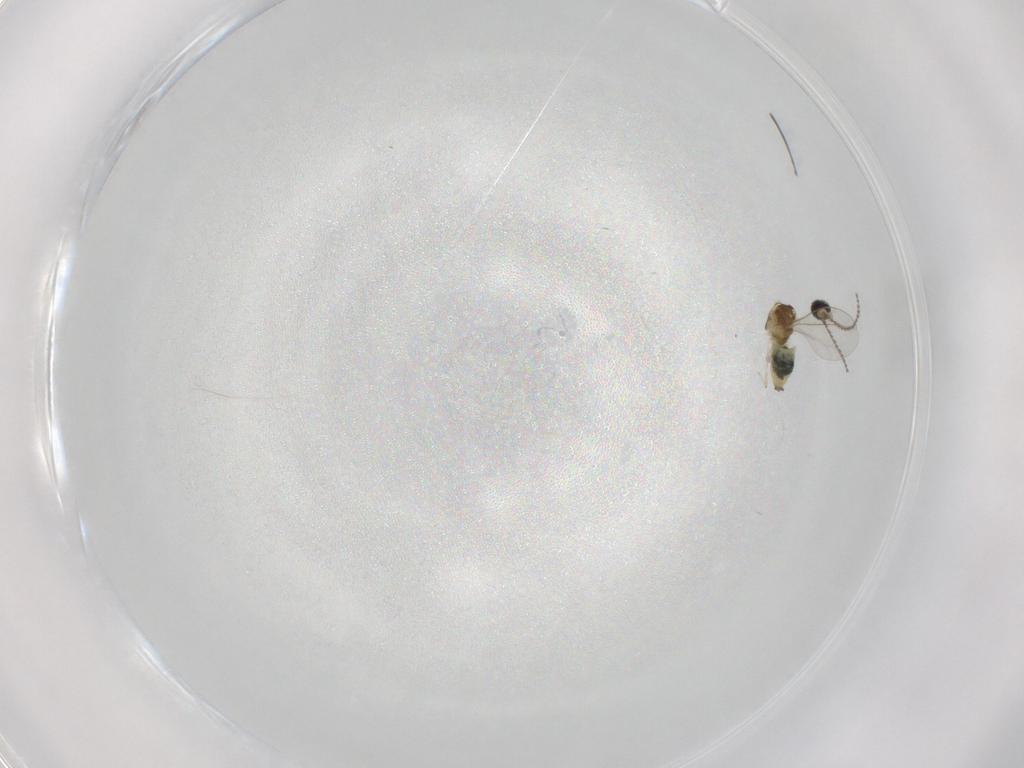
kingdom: Animalia
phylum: Arthropoda
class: Insecta
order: Diptera
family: Cecidomyiidae
